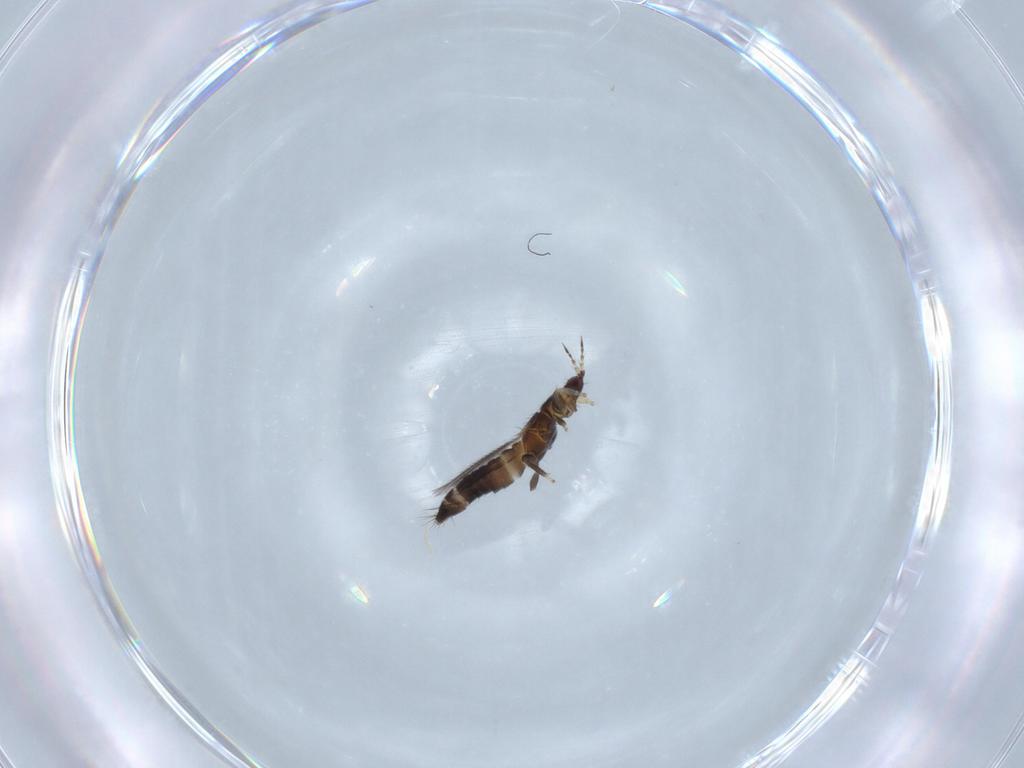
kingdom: Animalia
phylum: Arthropoda
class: Insecta
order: Thysanoptera
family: Thripidae
